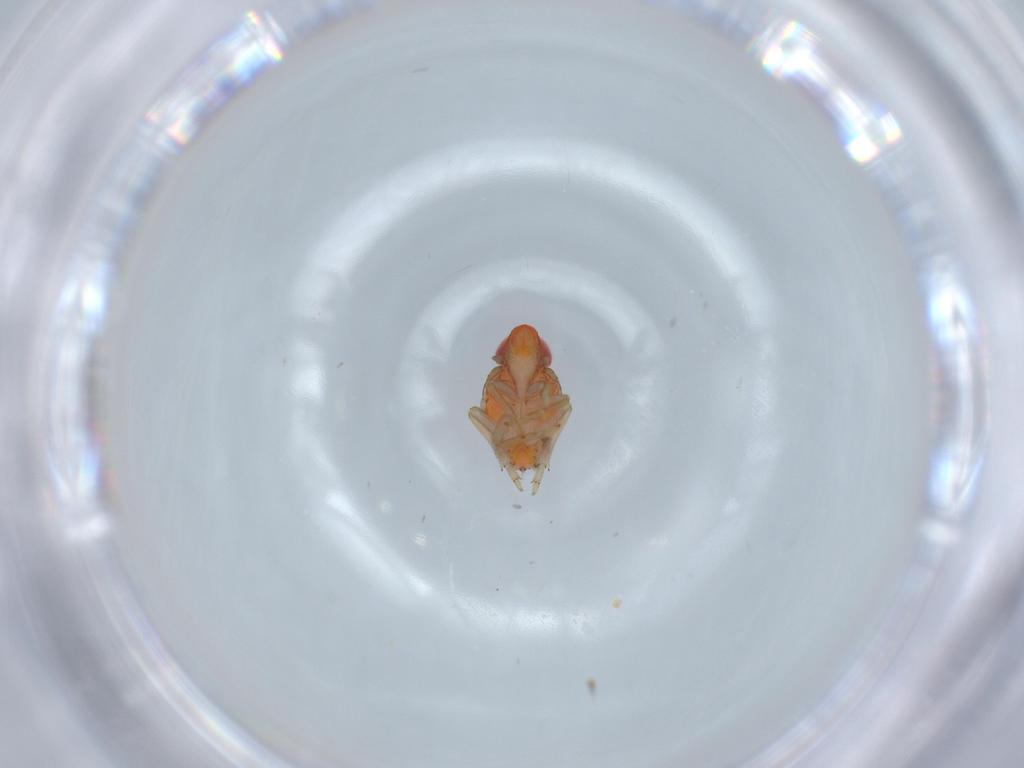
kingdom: Animalia
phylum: Arthropoda
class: Insecta
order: Hemiptera
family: Fulgoroidea_incertae_sedis
